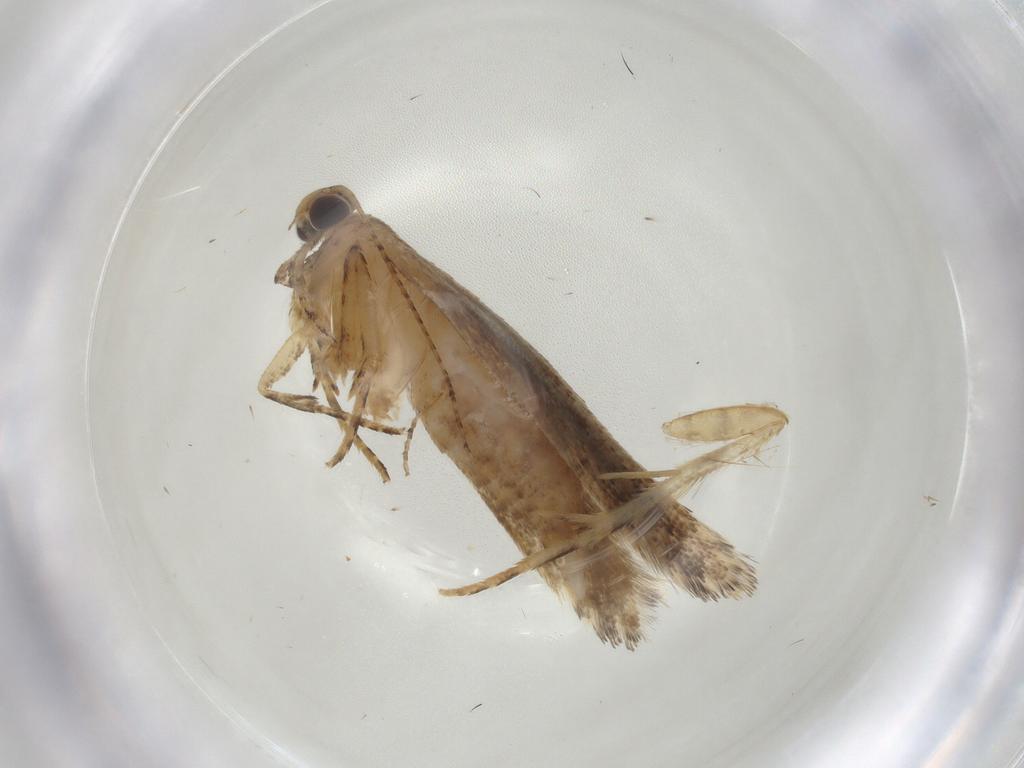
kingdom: Animalia
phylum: Arthropoda
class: Insecta
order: Lepidoptera
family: Gelechiidae
